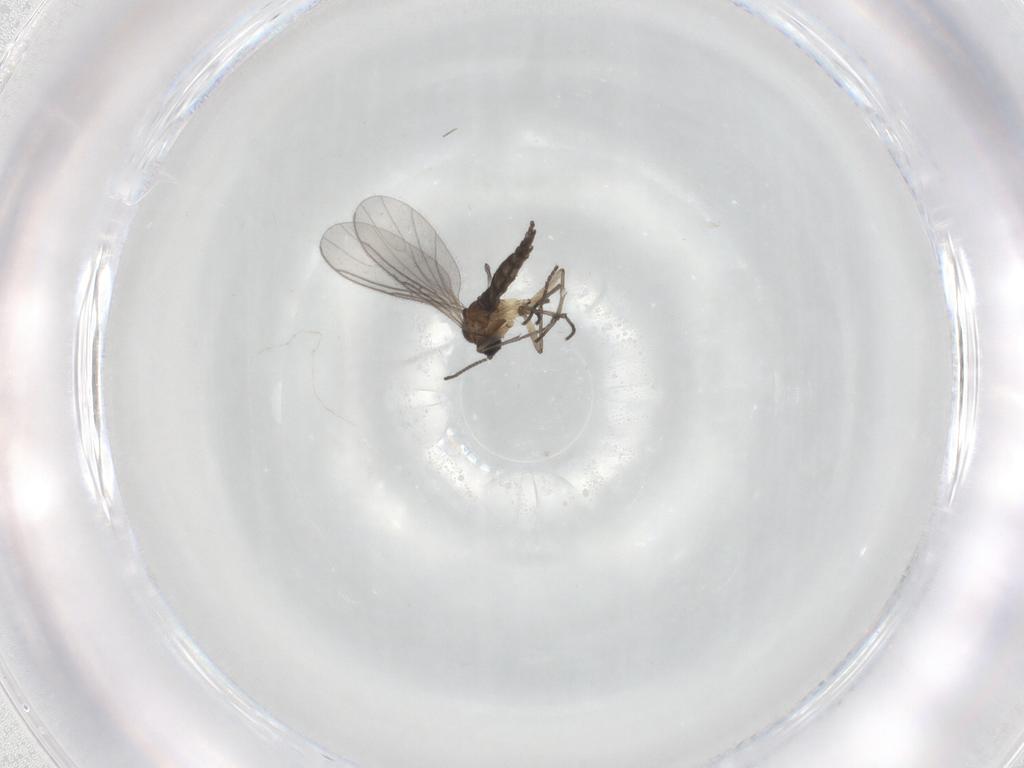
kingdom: Animalia
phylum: Arthropoda
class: Insecta
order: Diptera
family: Sciaridae
